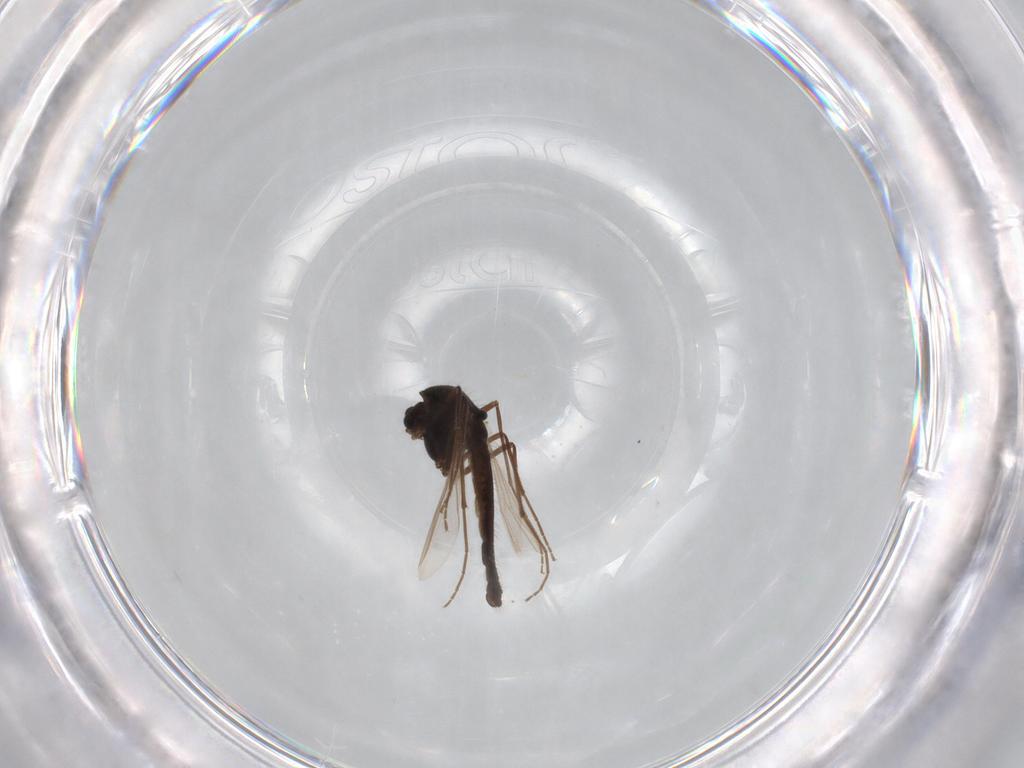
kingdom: Animalia
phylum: Arthropoda
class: Insecta
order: Diptera
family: Chironomidae
